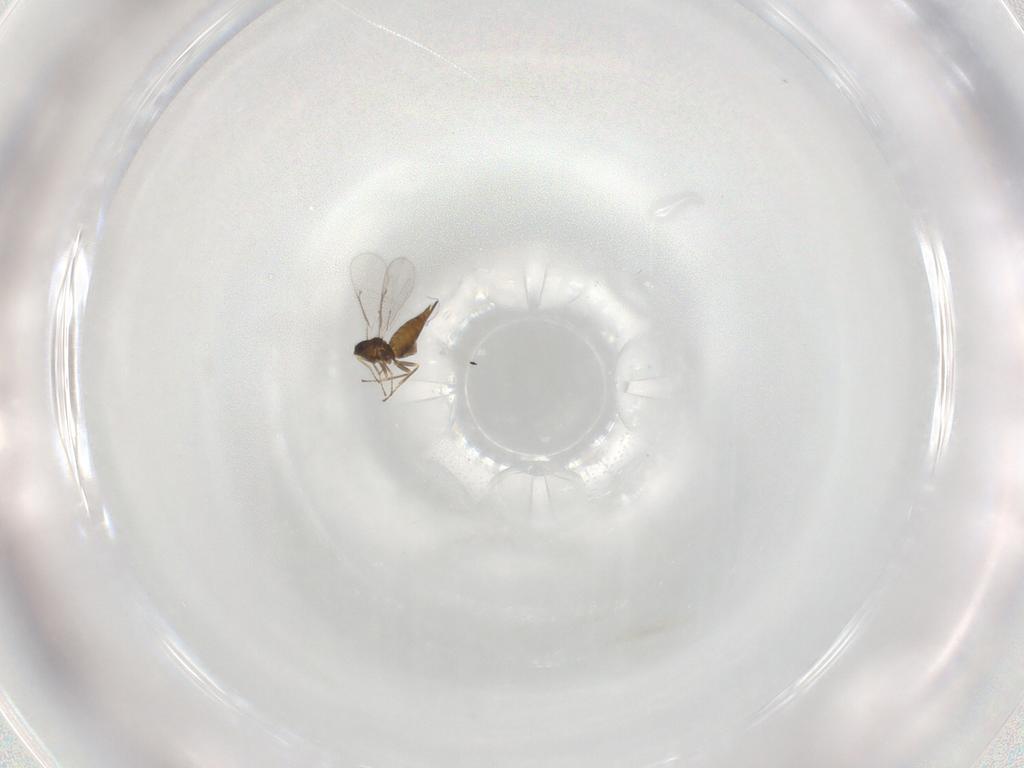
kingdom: Animalia
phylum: Arthropoda
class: Insecta
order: Hymenoptera
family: Eulophidae
